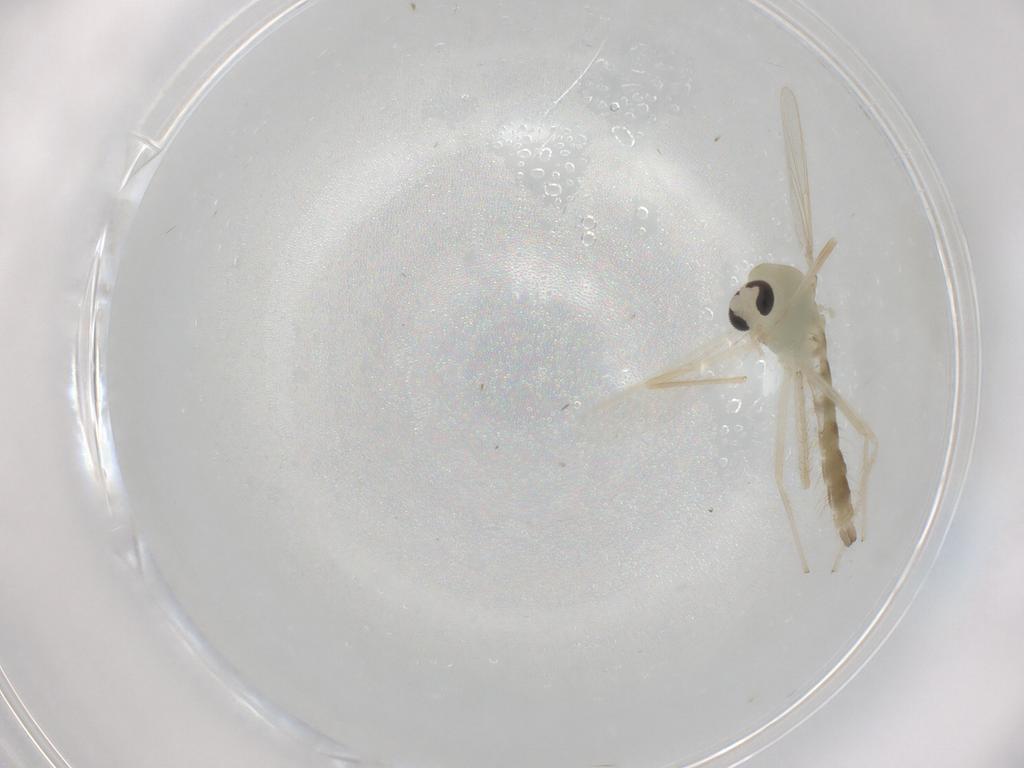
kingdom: Animalia
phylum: Arthropoda
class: Insecta
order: Diptera
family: Chironomidae
